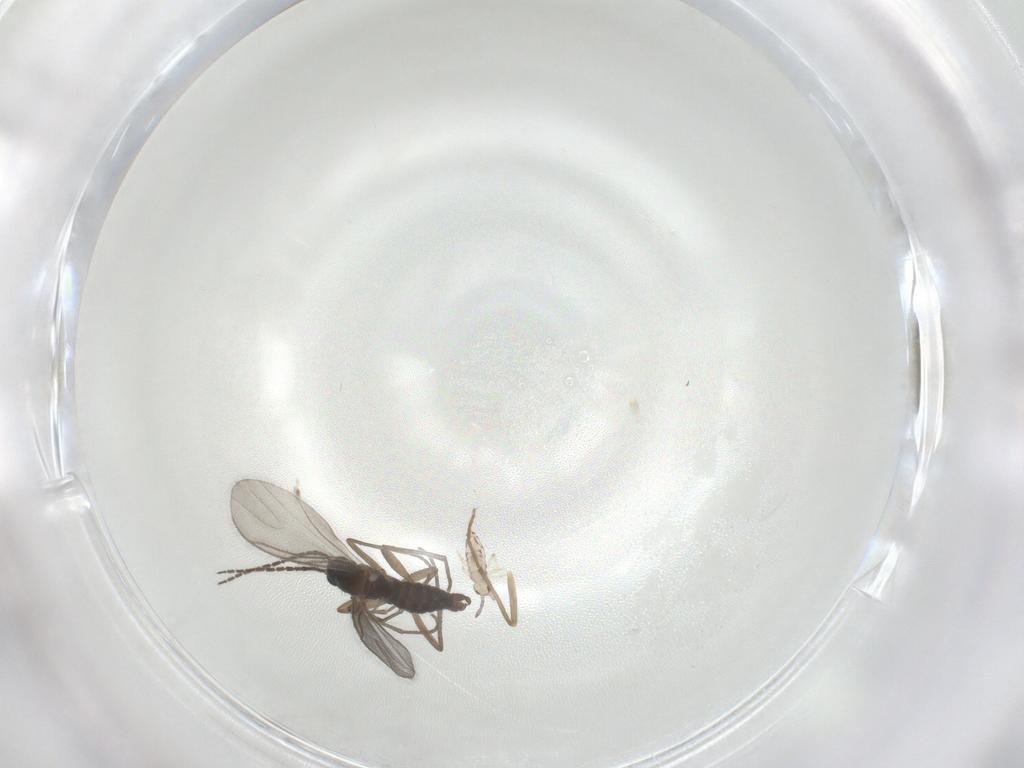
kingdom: Animalia
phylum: Arthropoda
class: Insecta
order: Diptera
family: Sciaridae
